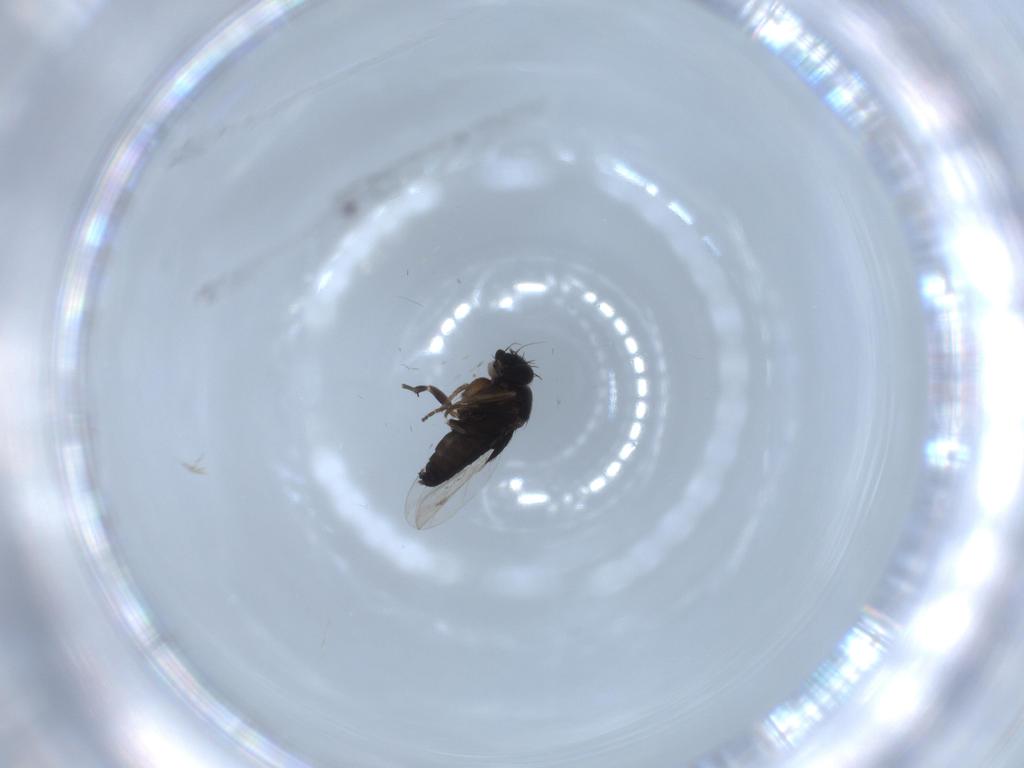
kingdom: Animalia
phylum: Arthropoda
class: Insecta
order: Diptera
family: Phoridae
